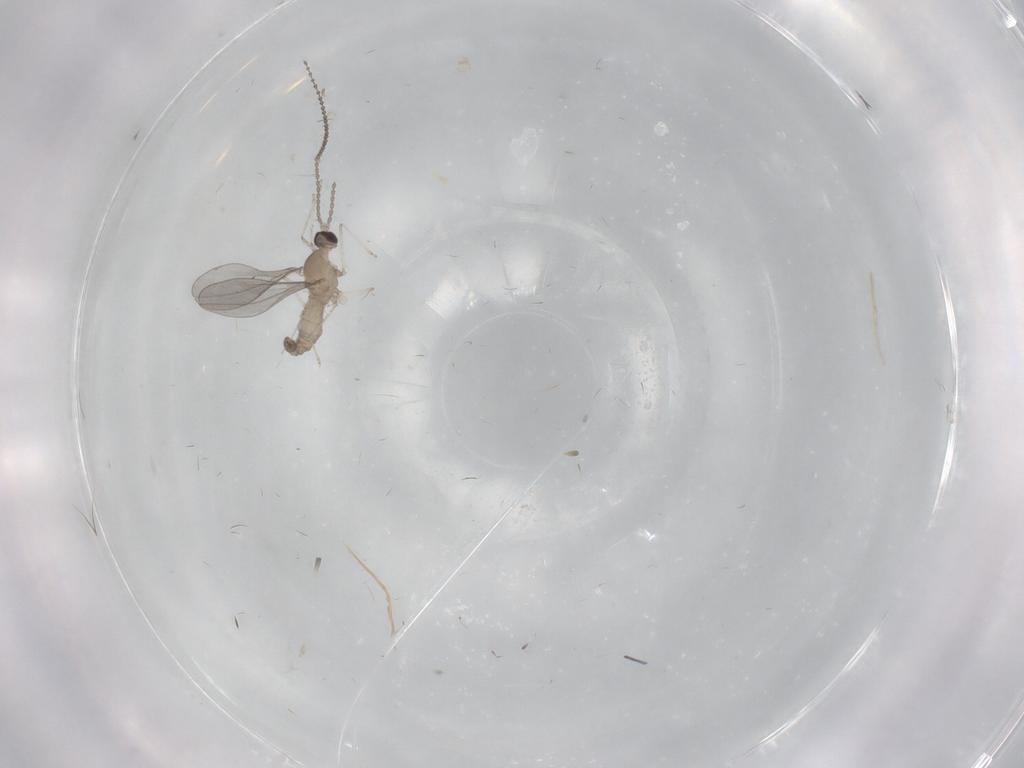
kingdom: Animalia
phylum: Arthropoda
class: Insecta
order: Diptera
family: Cecidomyiidae
